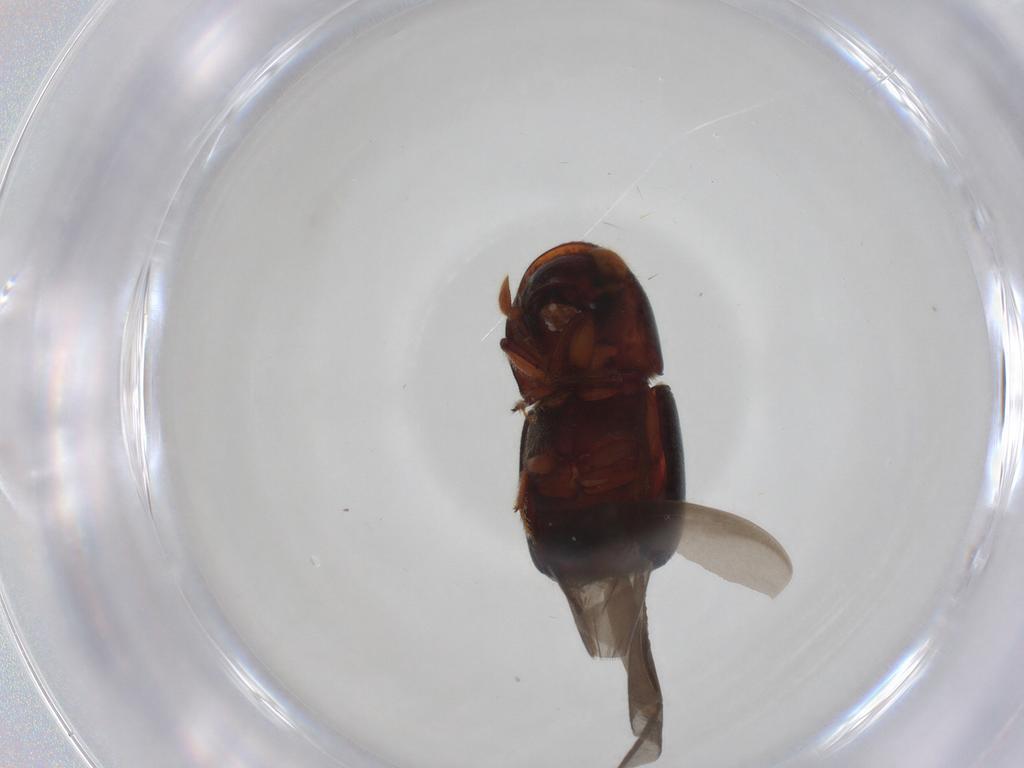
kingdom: Animalia
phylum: Arthropoda
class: Insecta
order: Coleoptera
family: Curculionidae
